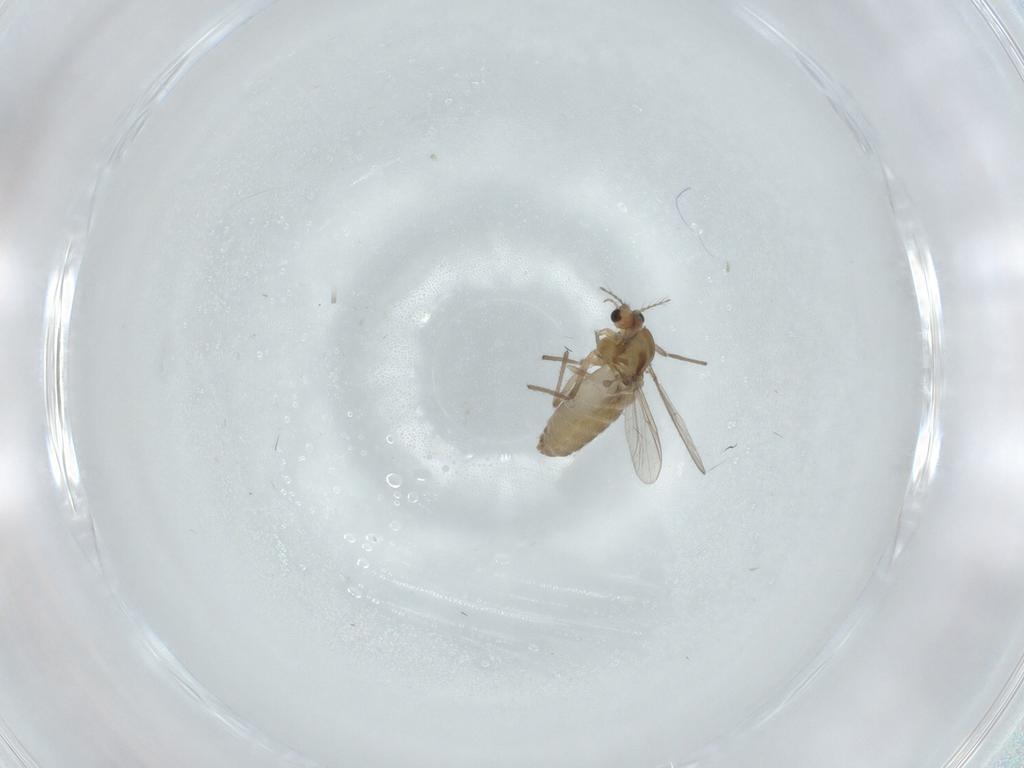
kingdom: Animalia
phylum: Arthropoda
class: Insecta
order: Diptera
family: Chironomidae
